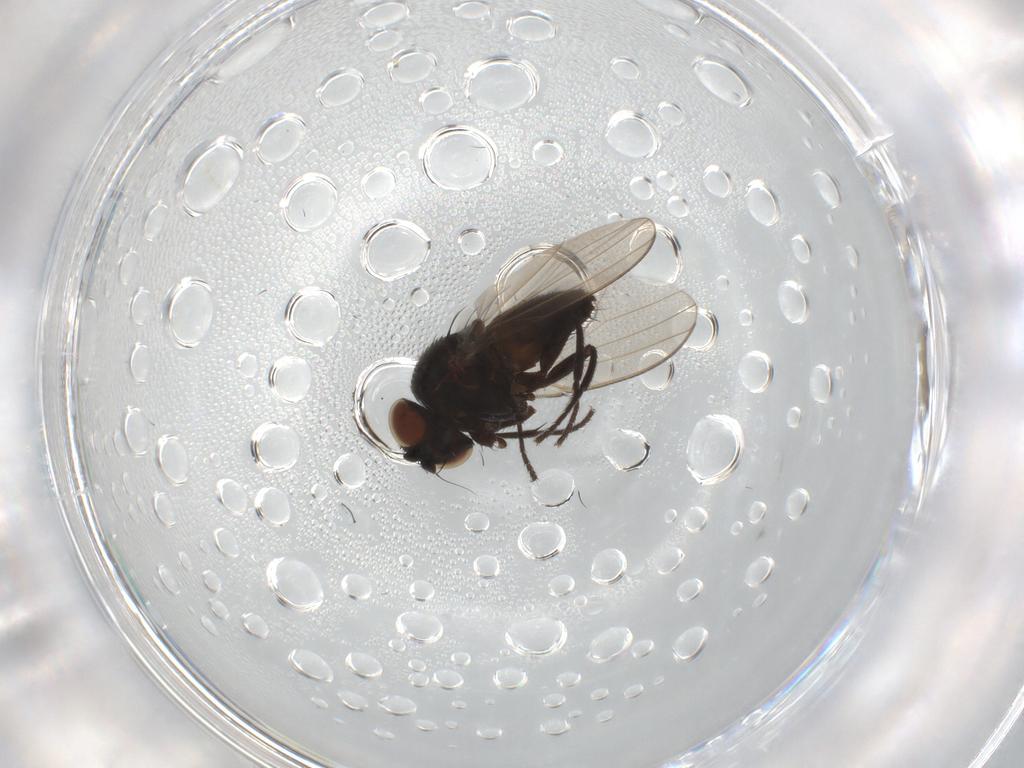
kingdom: Animalia
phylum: Arthropoda
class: Insecta
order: Diptera
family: Milichiidae
